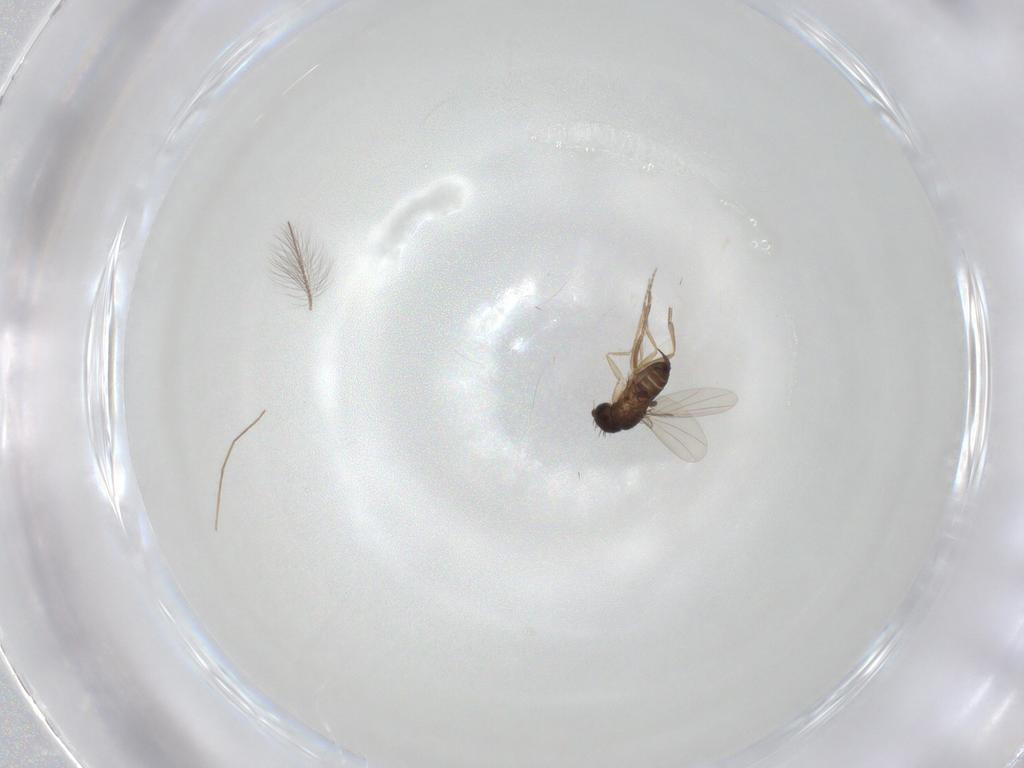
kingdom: Animalia
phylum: Arthropoda
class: Insecta
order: Diptera
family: Phoridae
